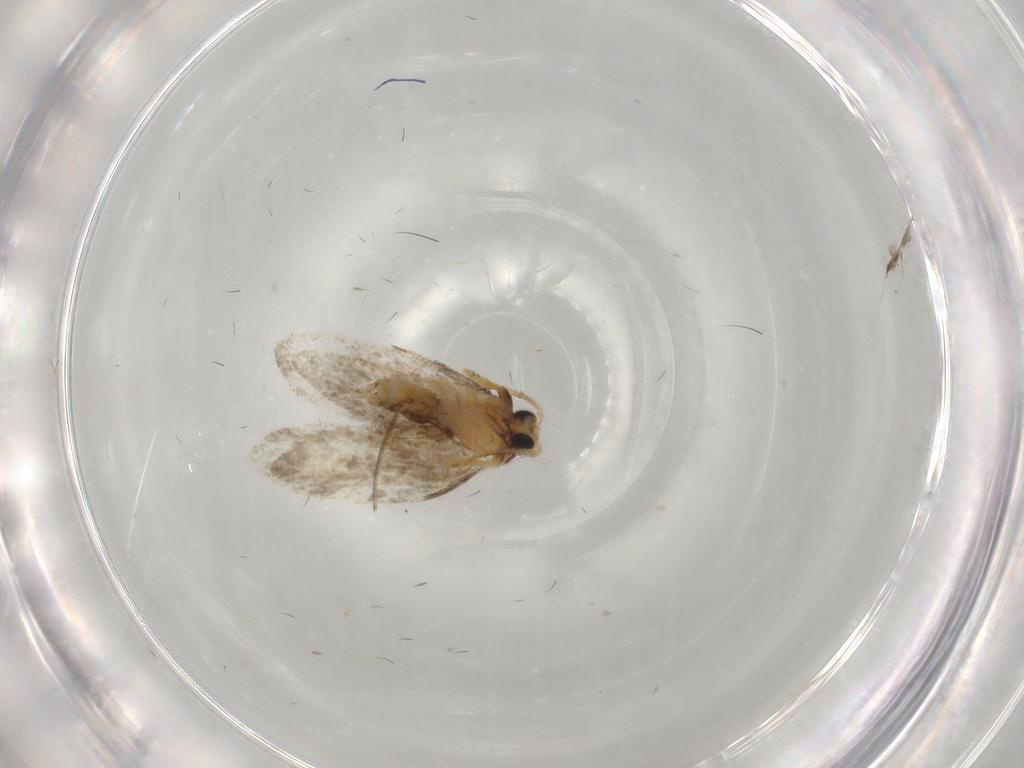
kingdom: Animalia
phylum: Arthropoda
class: Insecta
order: Lepidoptera
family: Psychidae
